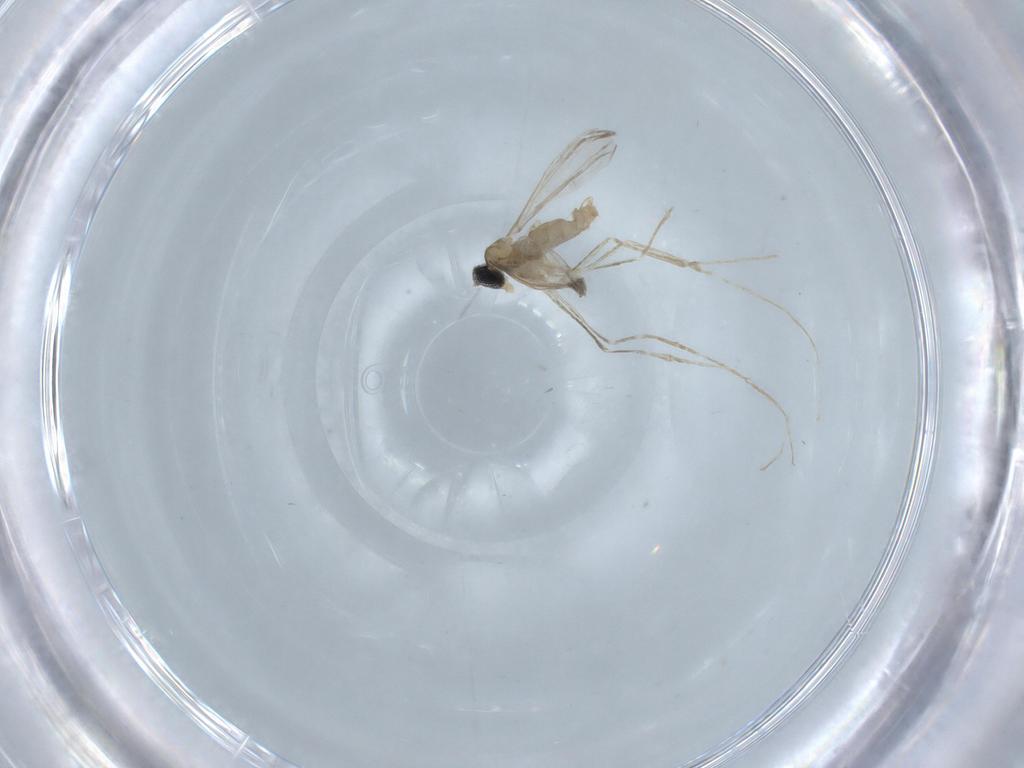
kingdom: Animalia
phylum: Arthropoda
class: Insecta
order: Diptera
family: Cecidomyiidae
